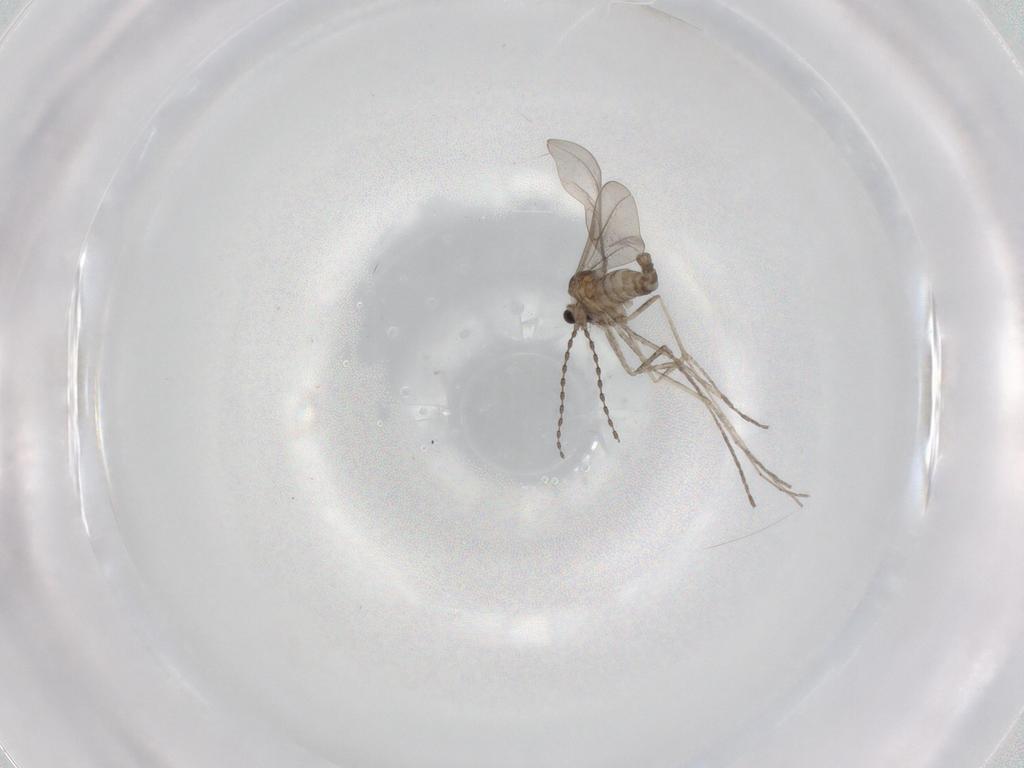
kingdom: Animalia
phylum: Arthropoda
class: Insecta
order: Diptera
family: Cecidomyiidae
